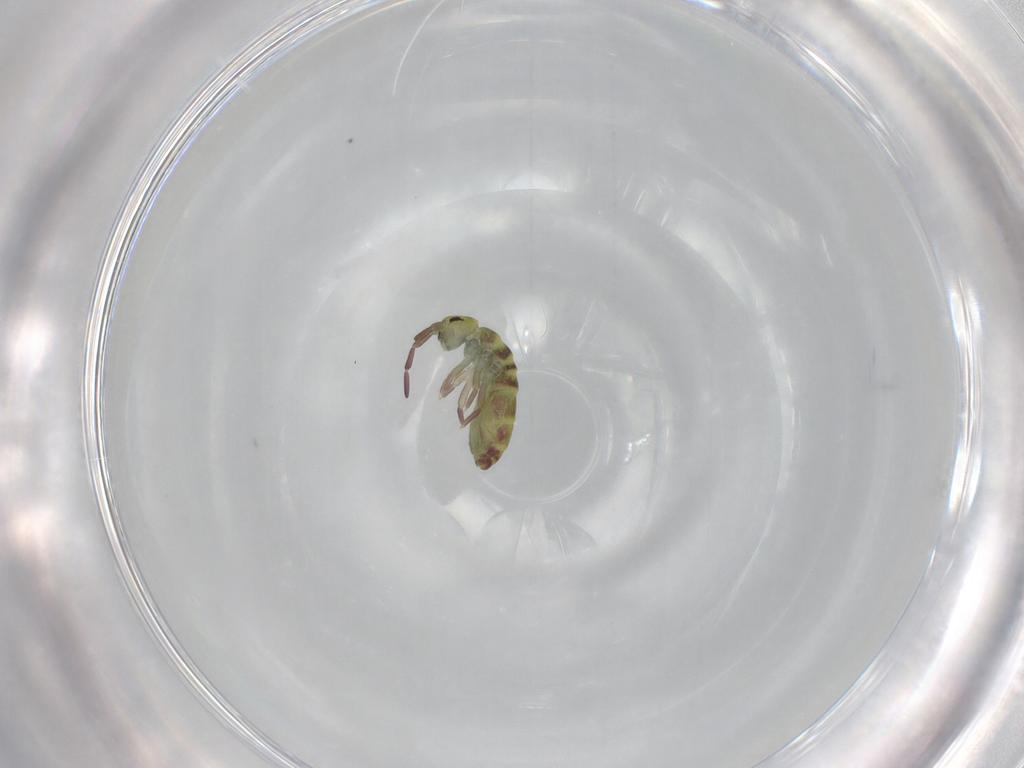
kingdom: Animalia
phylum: Arthropoda
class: Collembola
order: Entomobryomorpha
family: Isotomidae
